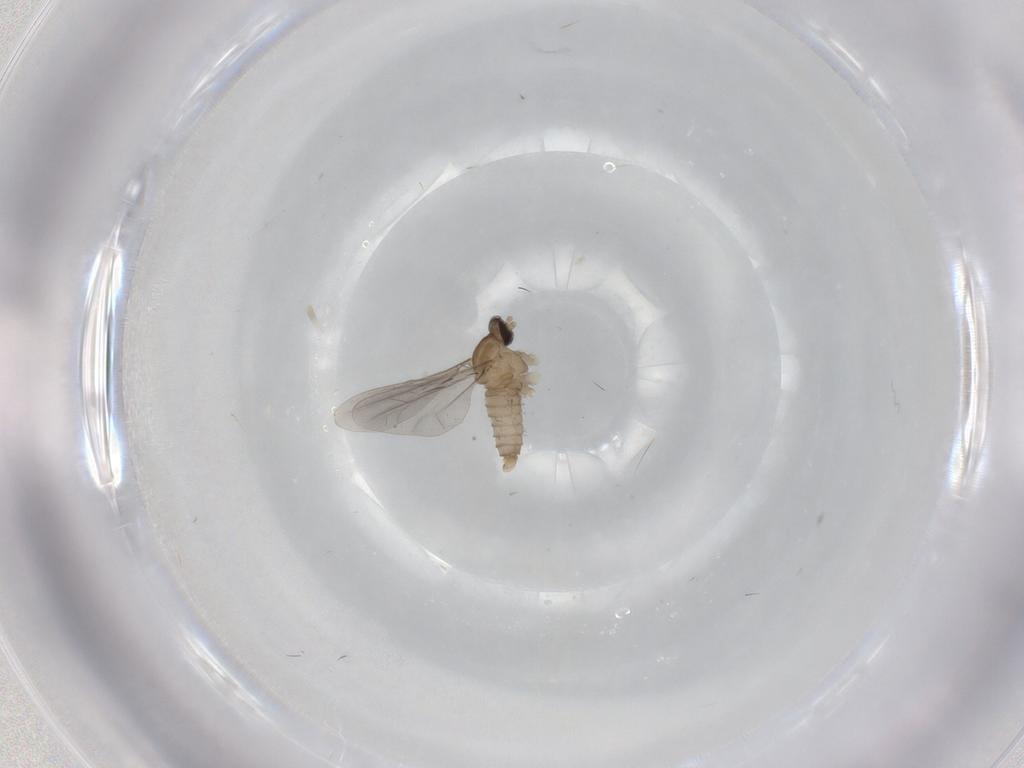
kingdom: Animalia
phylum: Arthropoda
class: Insecta
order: Diptera
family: Cecidomyiidae
